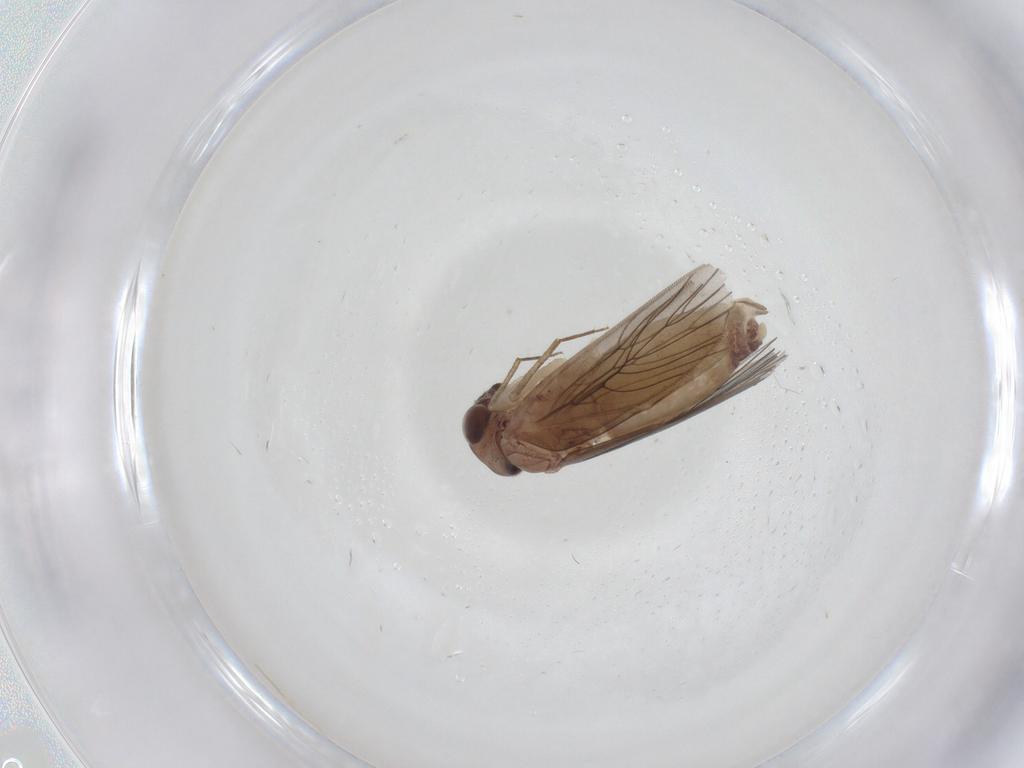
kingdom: Animalia
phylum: Arthropoda
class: Insecta
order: Psocodea
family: Lepidopsocidae
